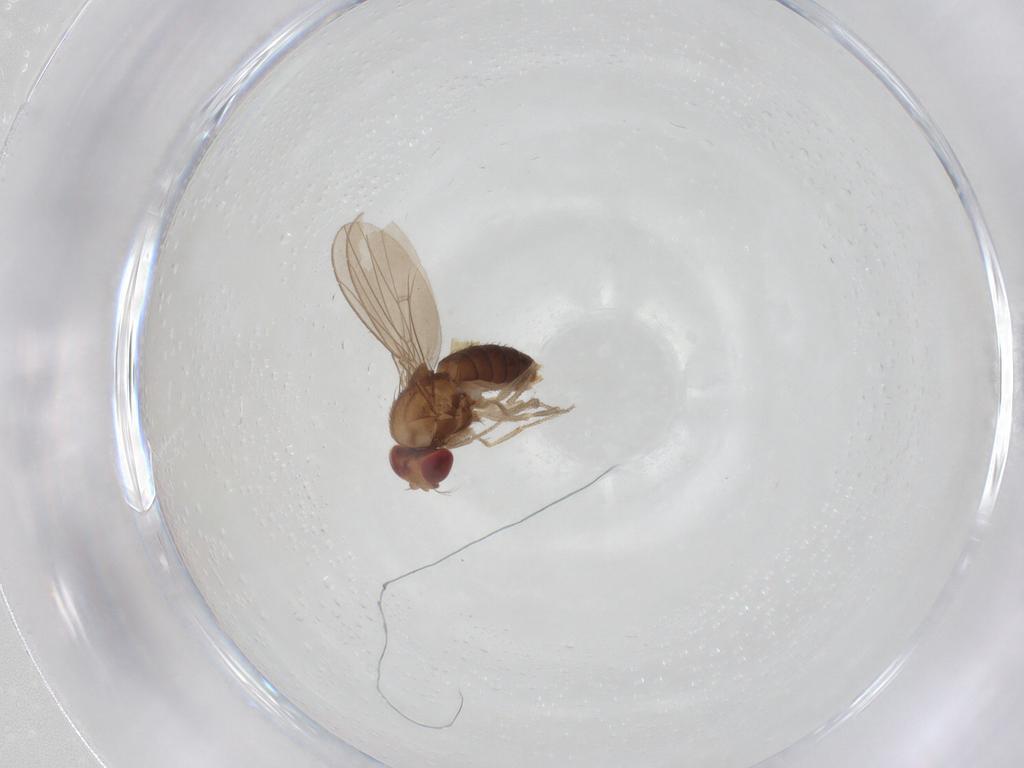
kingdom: Animalia
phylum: Arthropoda
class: Insecta
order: Diptera
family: Drosophilidae
